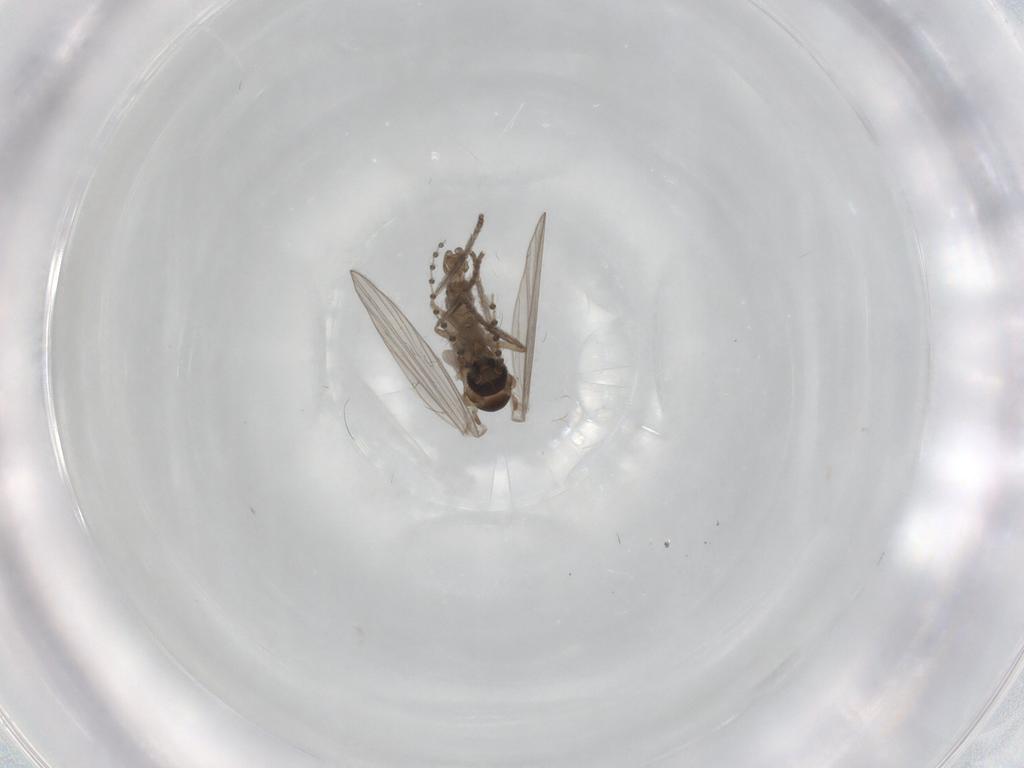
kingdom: Animalia
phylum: Arthropoda
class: Insecta
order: Diptera
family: Psychodidae
